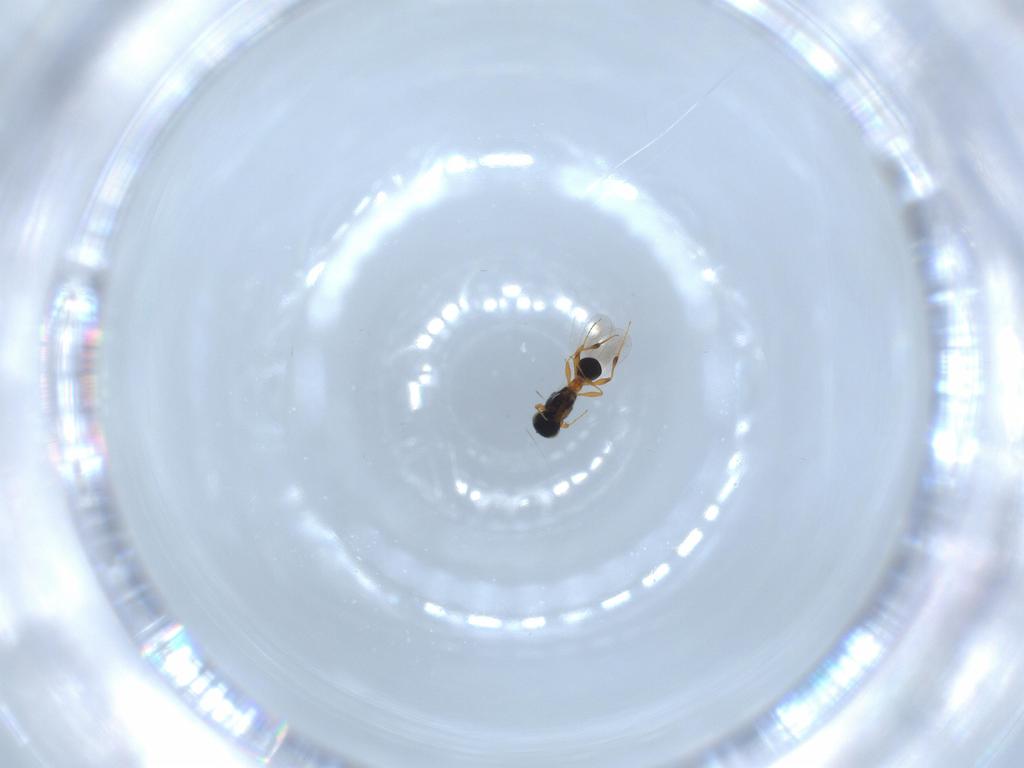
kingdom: Animalia
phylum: Arthropoda
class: Insecta
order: Hymenoptera
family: Platygastridae
